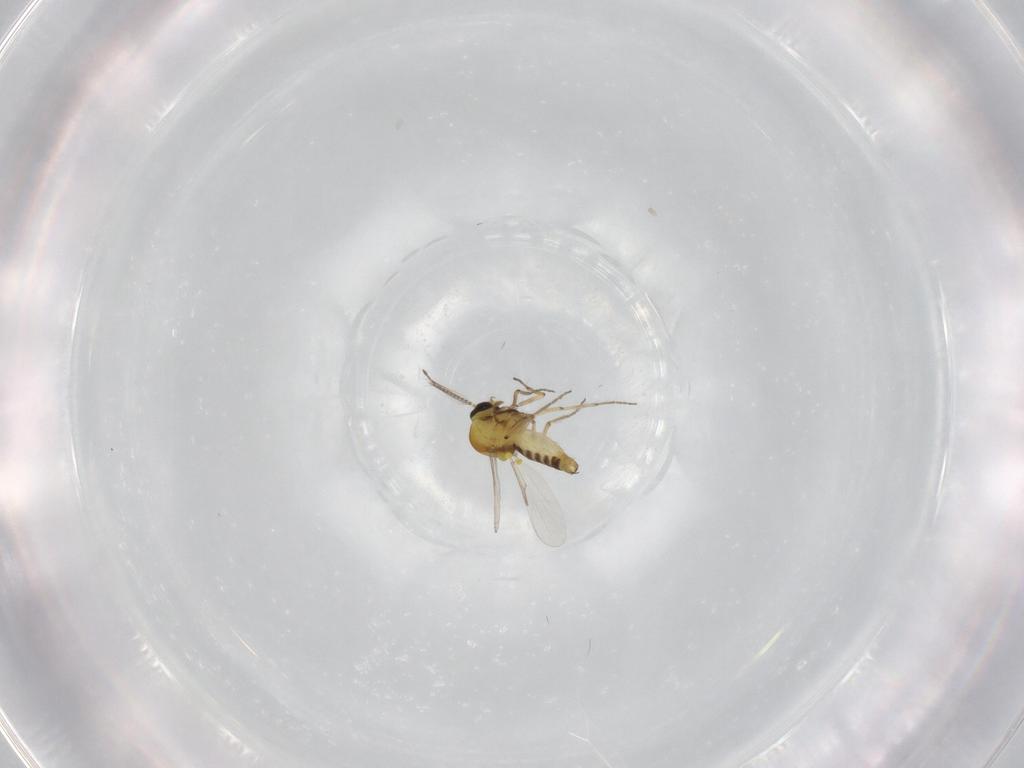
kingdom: Animalia
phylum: Arthropoda
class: Insecta
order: Diptera
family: Ceratopogonidae
